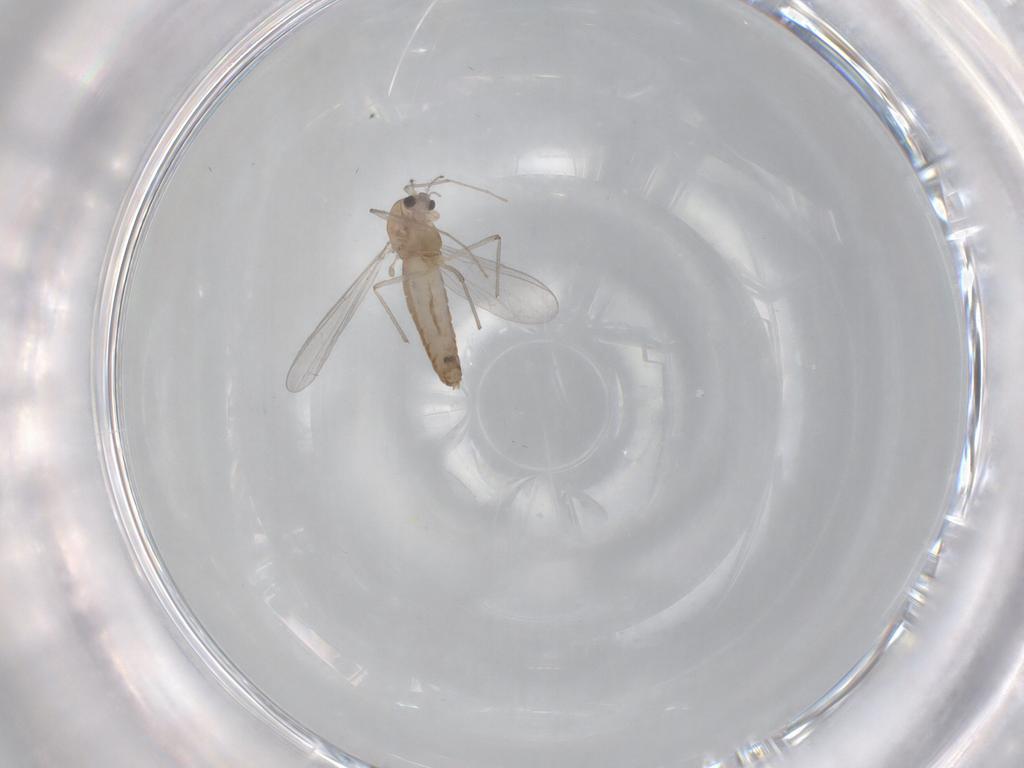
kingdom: Animalia
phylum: Arthropoda
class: Insecta
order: Diptera
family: Chironomidae
